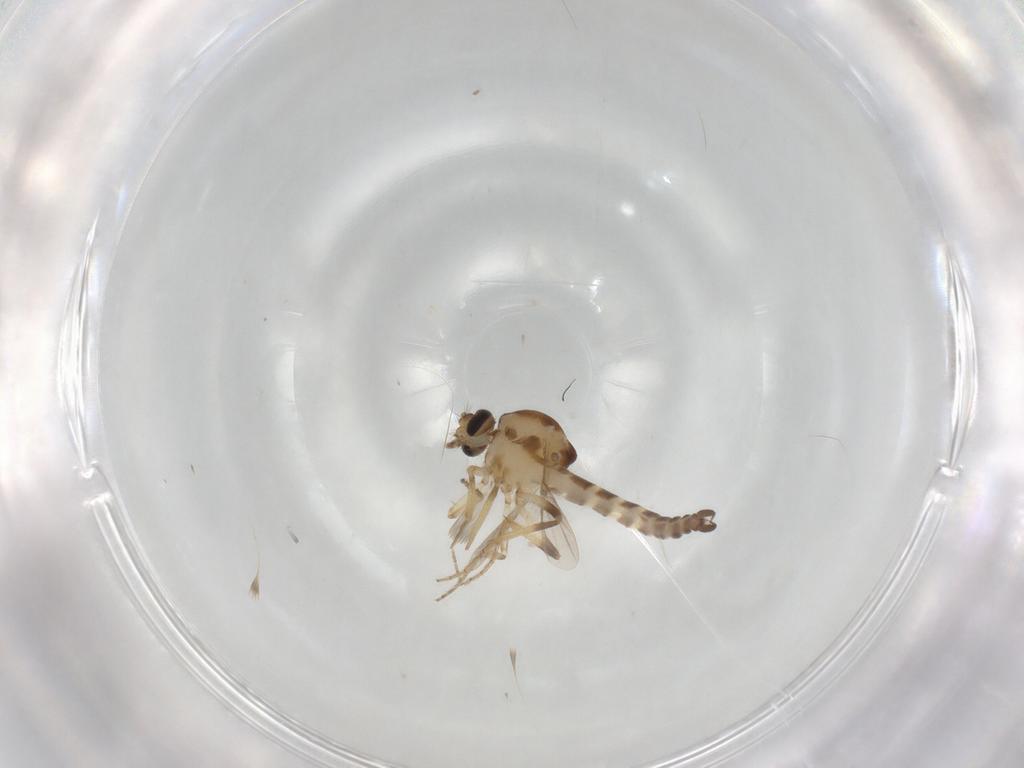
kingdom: Animalia
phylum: Arthropoda
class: Insecta
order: Diptera
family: Ceratopogonidae
